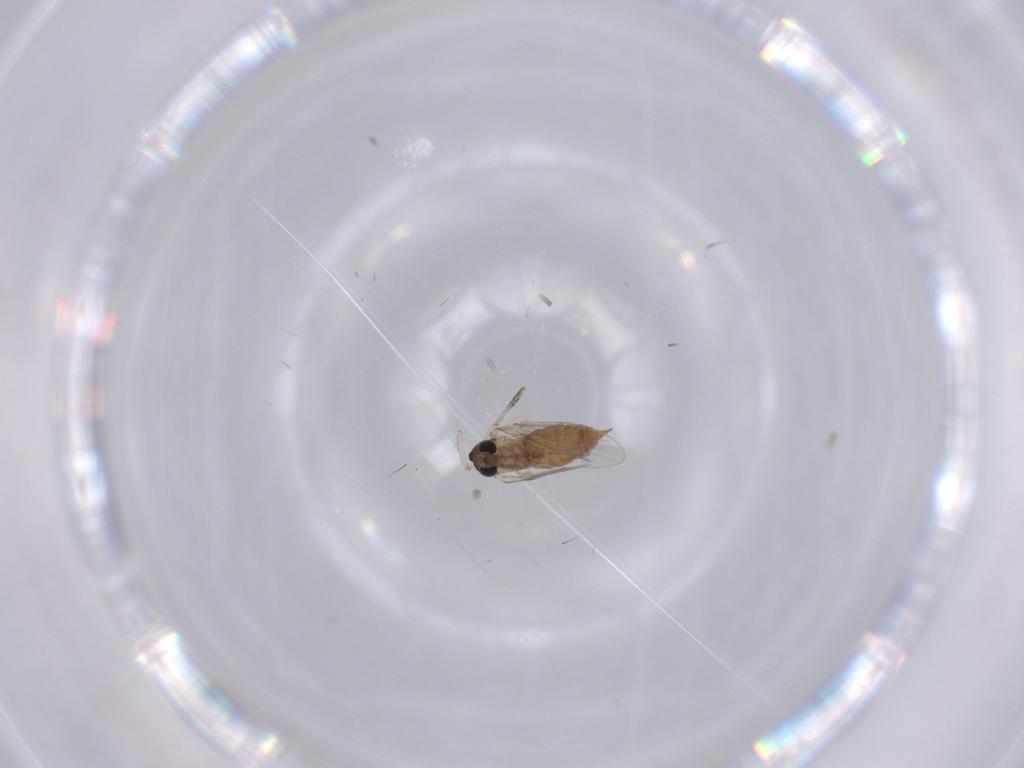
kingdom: Animalia
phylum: Arthropoda
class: Insecta
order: Diptera
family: Psychodidae
